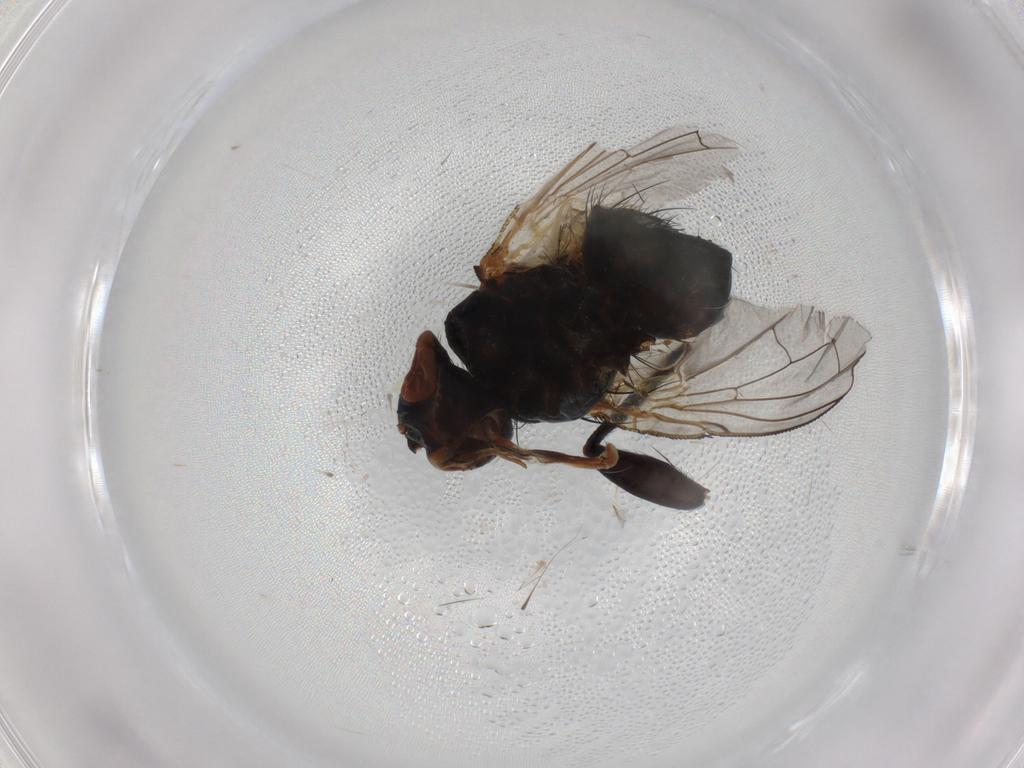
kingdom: Animalia
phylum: Arthropoda
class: Insecta
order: Diptera
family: Tachinidae
